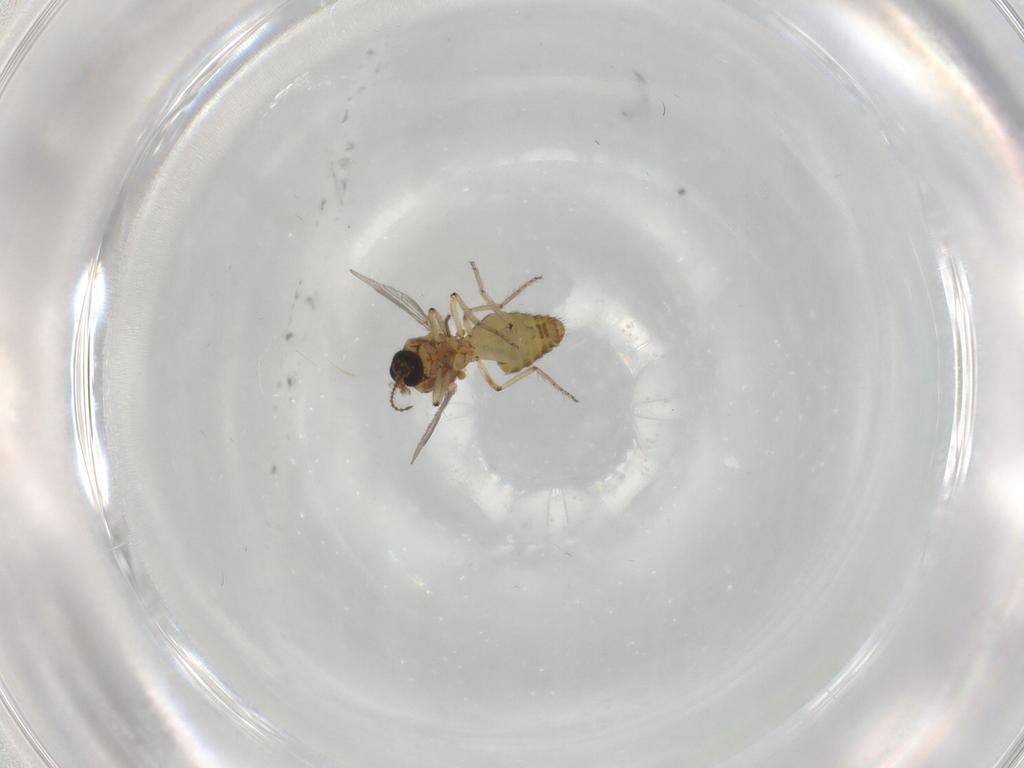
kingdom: Animalia
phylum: Arthropoda
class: Insecta
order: Diptera
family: Ceratopogonidae
